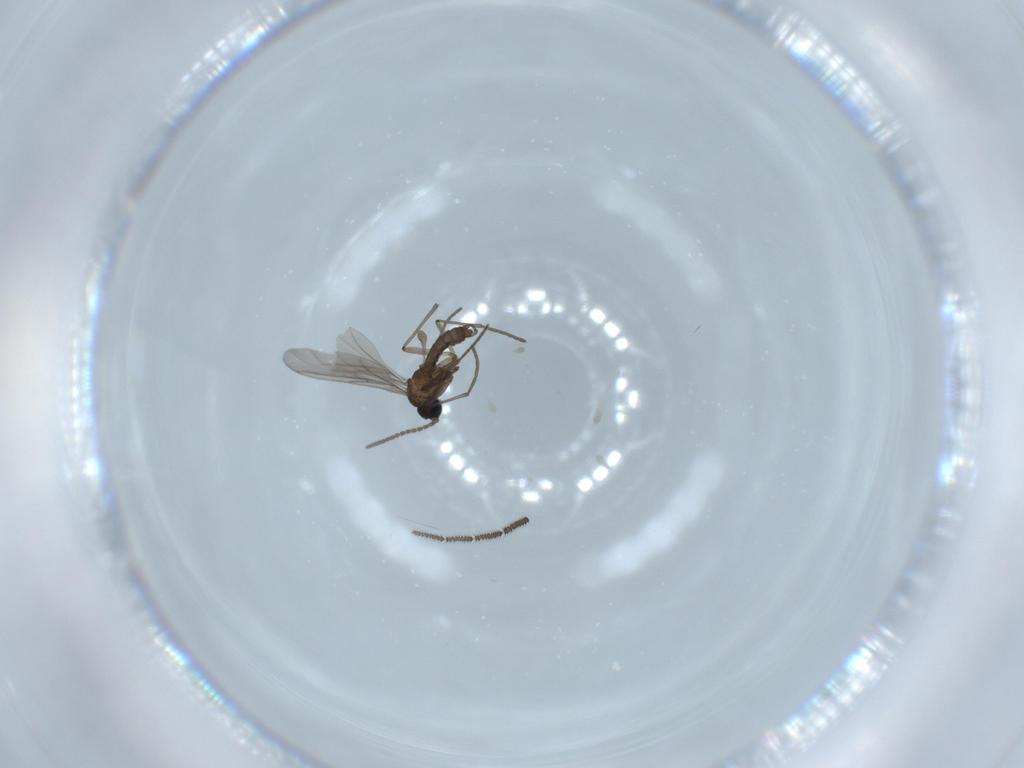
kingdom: Animalia
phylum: Arthropoda
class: Insecta
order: Diptera
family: Sciaridae
